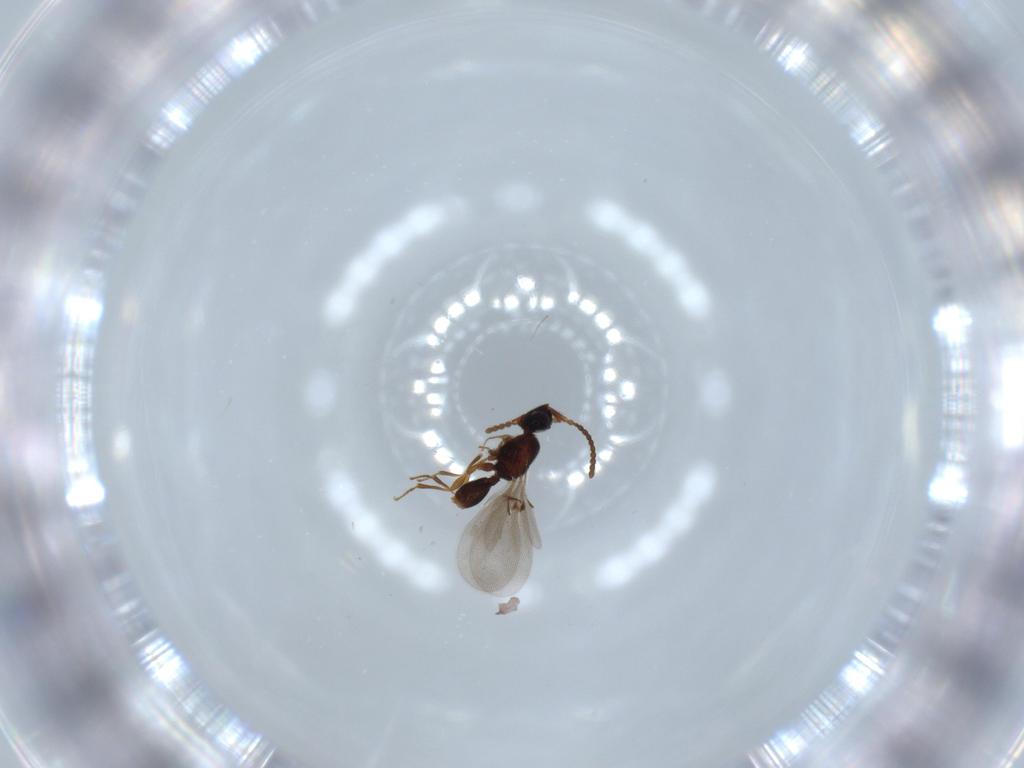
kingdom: Animalia
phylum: Arthropoda
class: Insecta
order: Hymenoptera
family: Diapriidae
